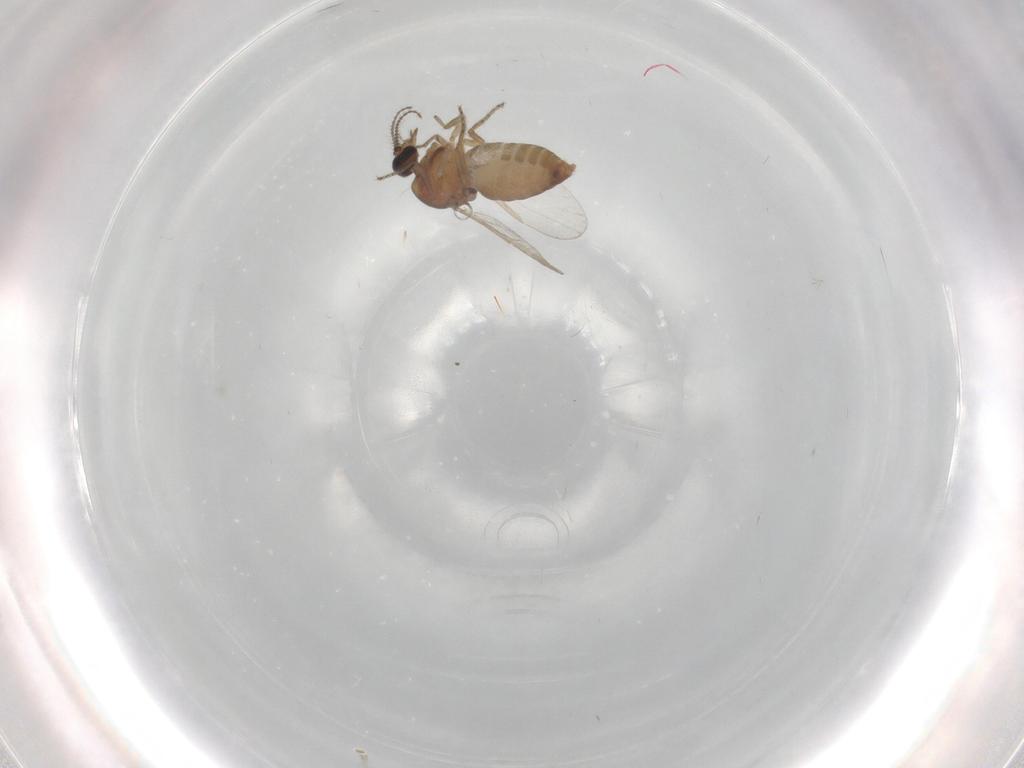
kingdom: Animalia
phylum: Arthropoda
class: Insecta
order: Diptera
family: Ceratopogonidae
